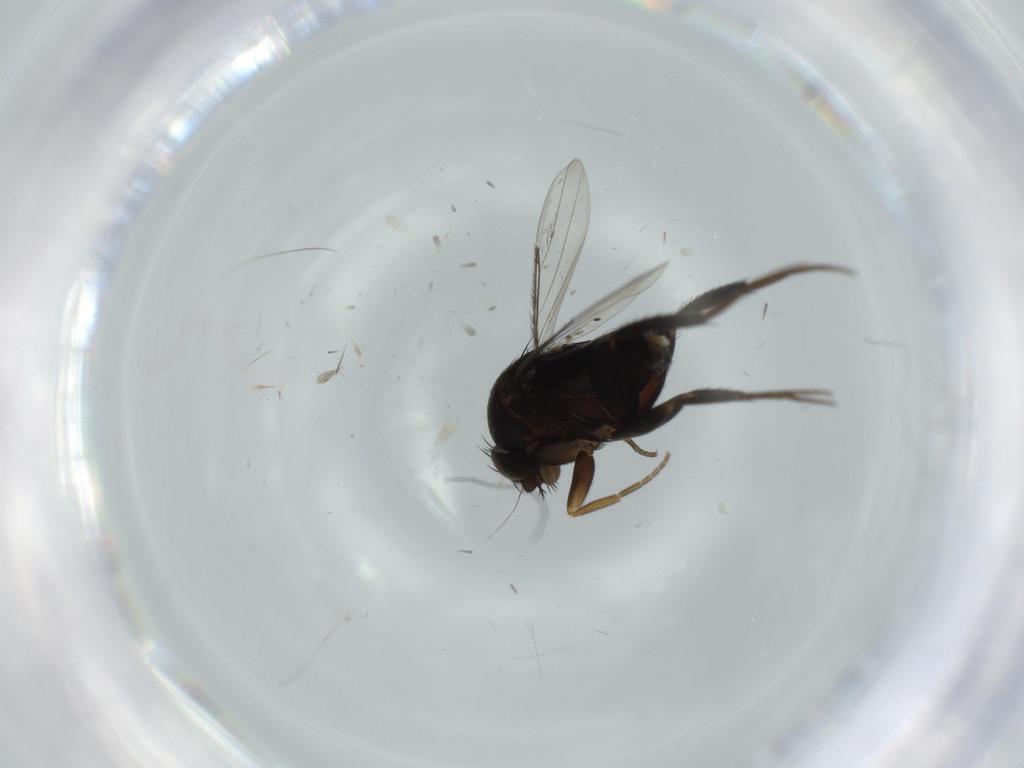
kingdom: Animalia
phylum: Arthropoda
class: Insecta
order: Diptera
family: Phoridae
